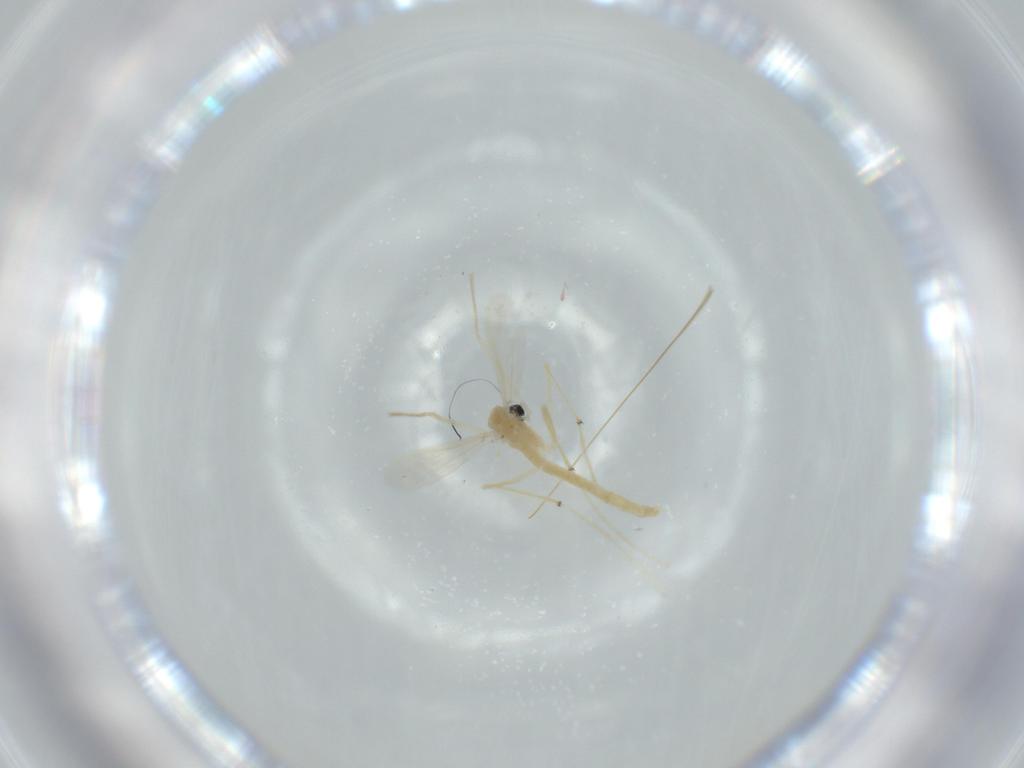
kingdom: Animalia
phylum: Arthropoda
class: Insecta
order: Diptera
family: Chironomidae
